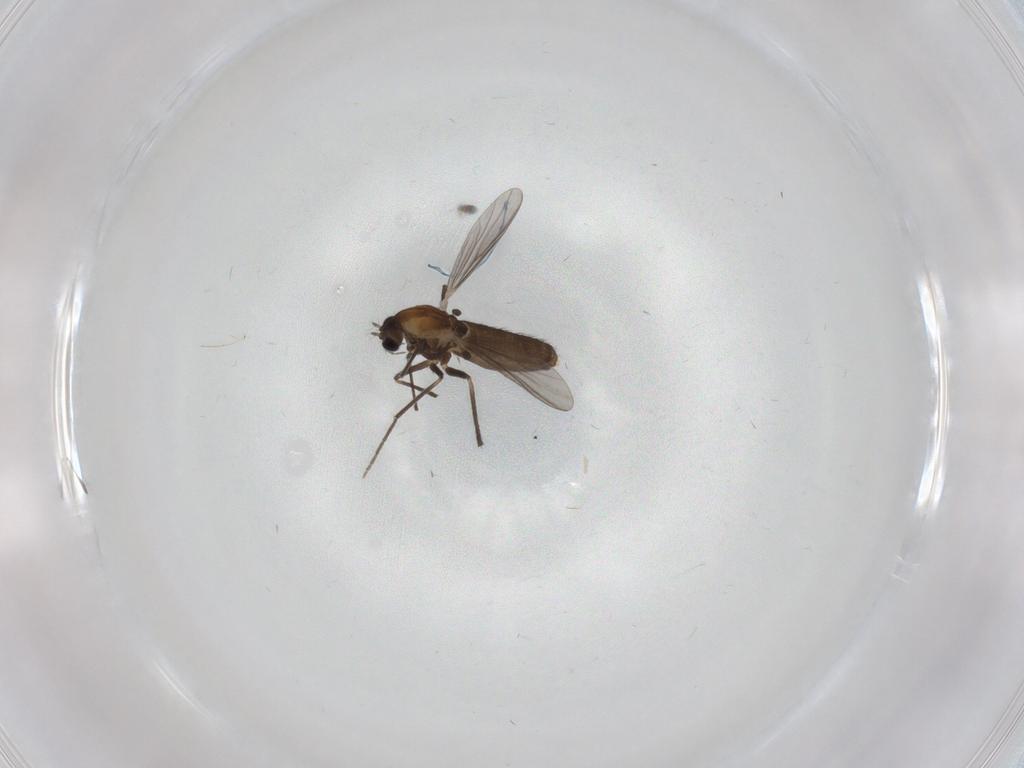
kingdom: Animalia
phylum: Arthropoda
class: Insecta
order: Diptera
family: Chironomidae
